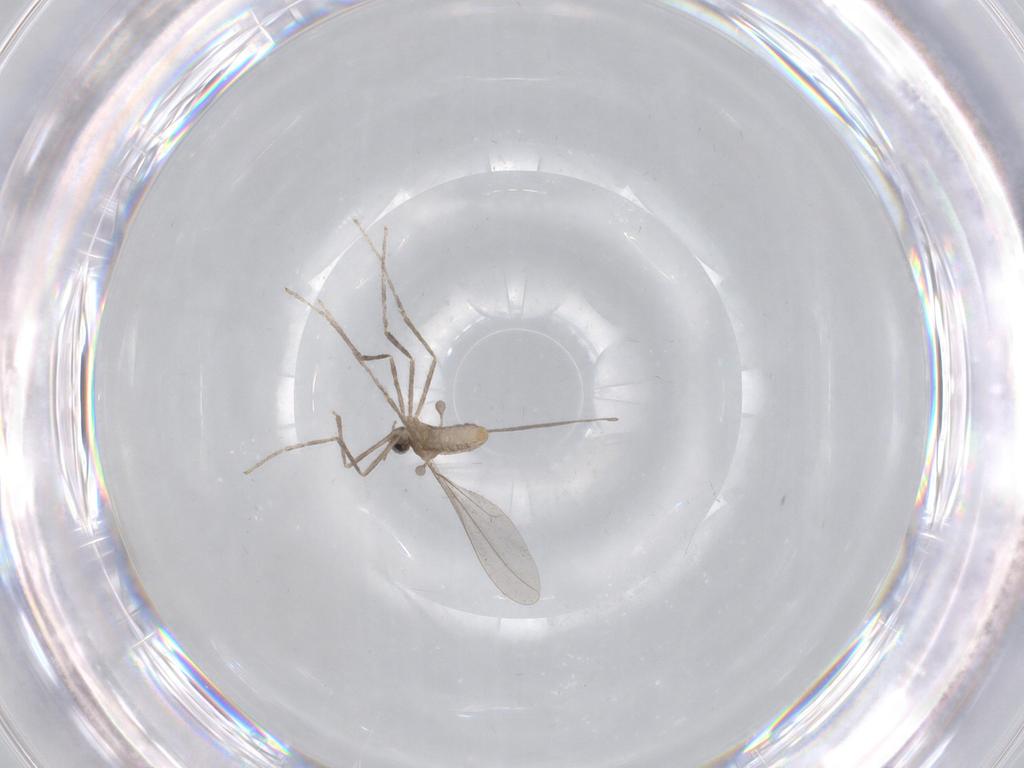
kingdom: Animalia
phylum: Arthropoda
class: Insecta
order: Diptera
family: Cecidomyiidae
